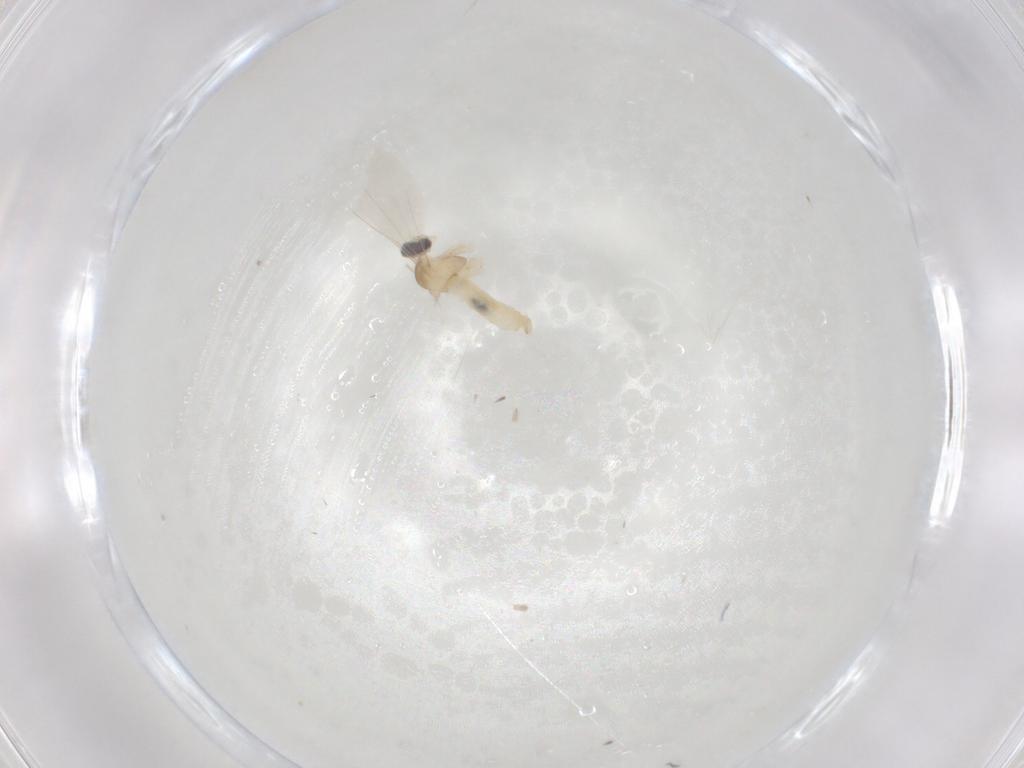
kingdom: Animalia
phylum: Arthropoda
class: Insecta
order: Diptera
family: Cecidomyiidae
